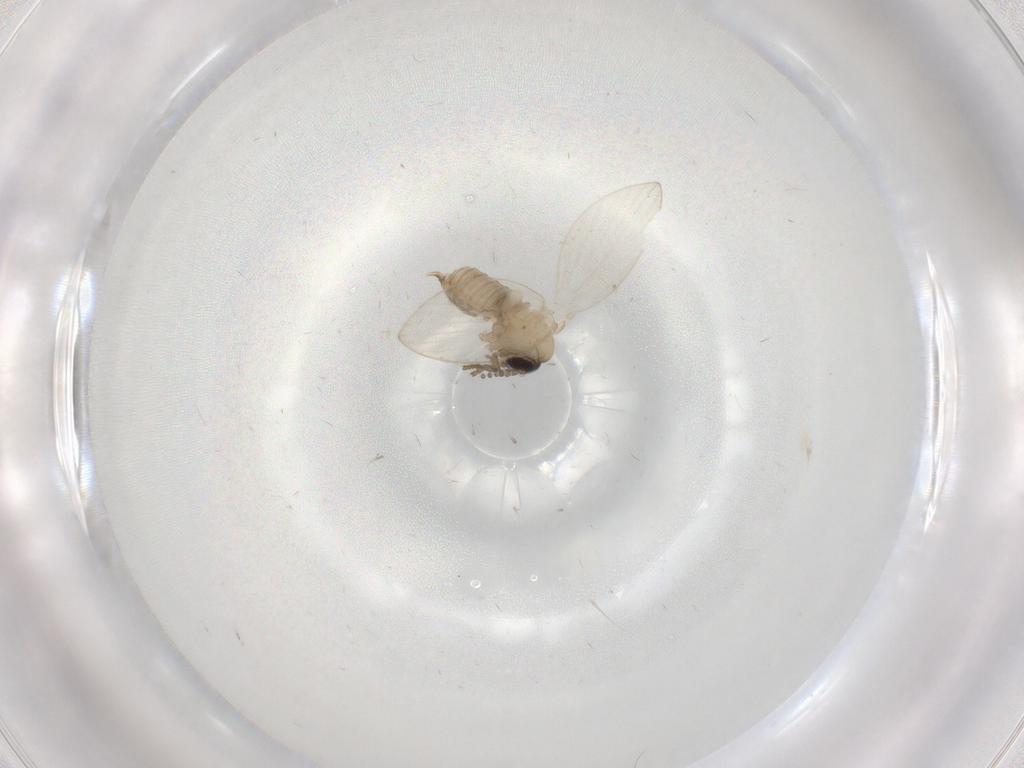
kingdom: Animalia
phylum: Arthropoda
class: Insecta
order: Diptera
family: Psychodidae
